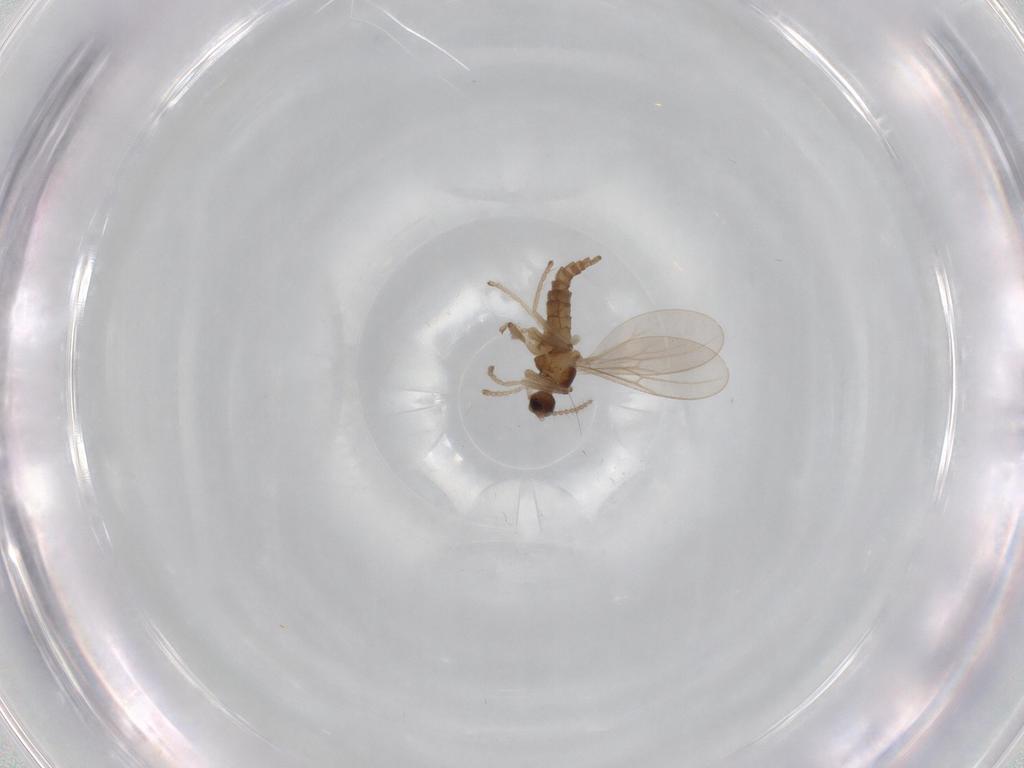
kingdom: Animalia
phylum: Arthropoda
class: Insecta
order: Diptera
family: Cecidomyiidae
